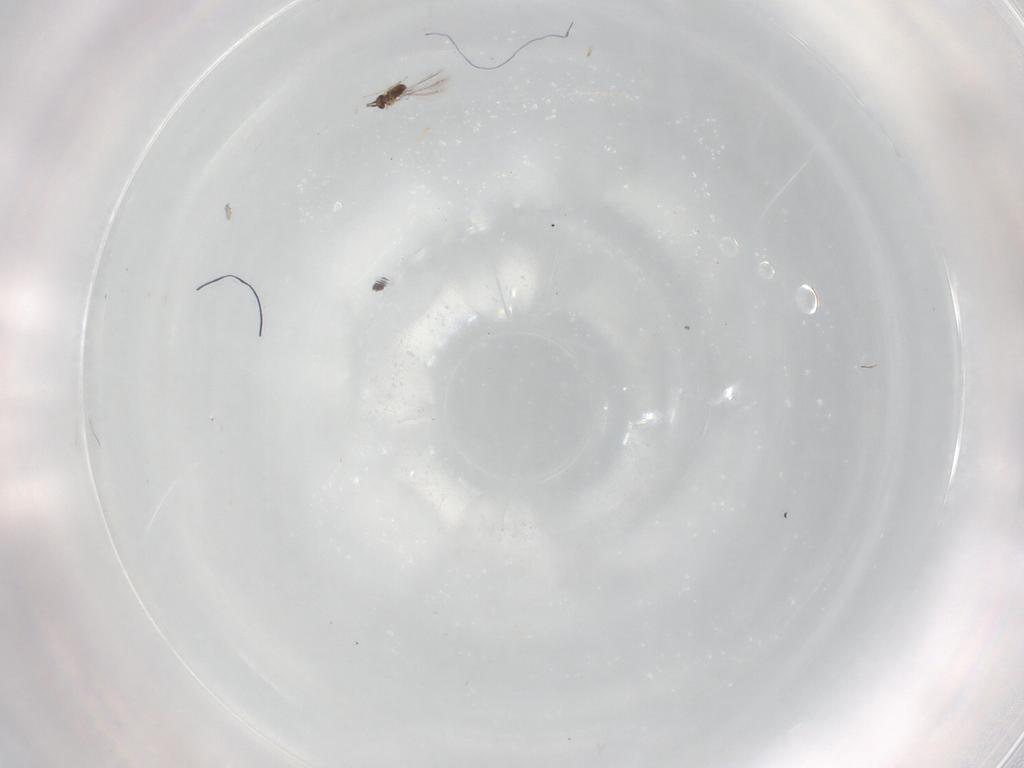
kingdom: Animalia
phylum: Arthropoda
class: Insecta
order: Hymenoptera
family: Mymaridae
